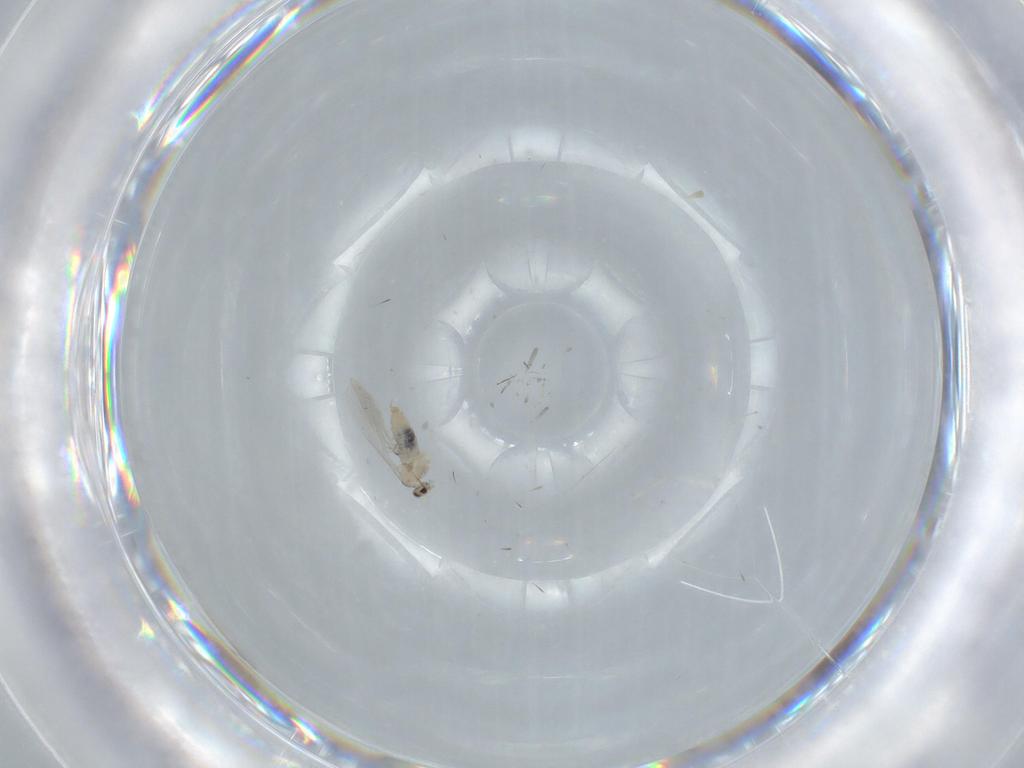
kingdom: Animalia
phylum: Arthropoda
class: Insecta
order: Diptera
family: Cecidomyiidae
